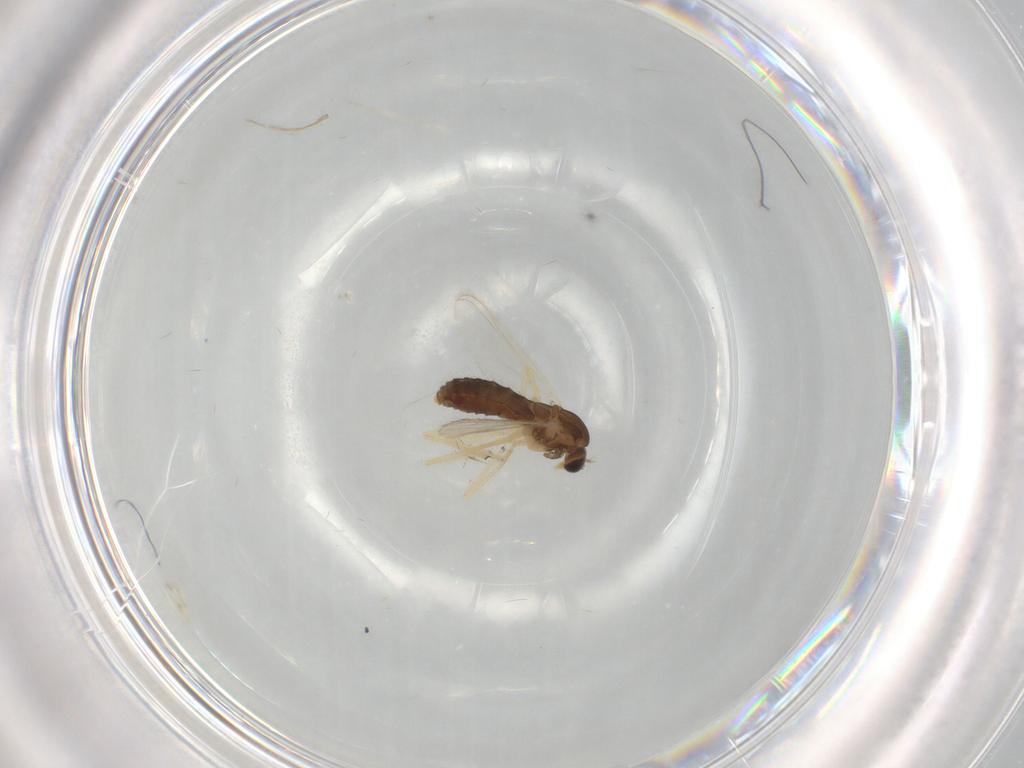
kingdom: Animalia
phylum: Arthropoda
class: Insecta
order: Diptera
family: Chironomidae
